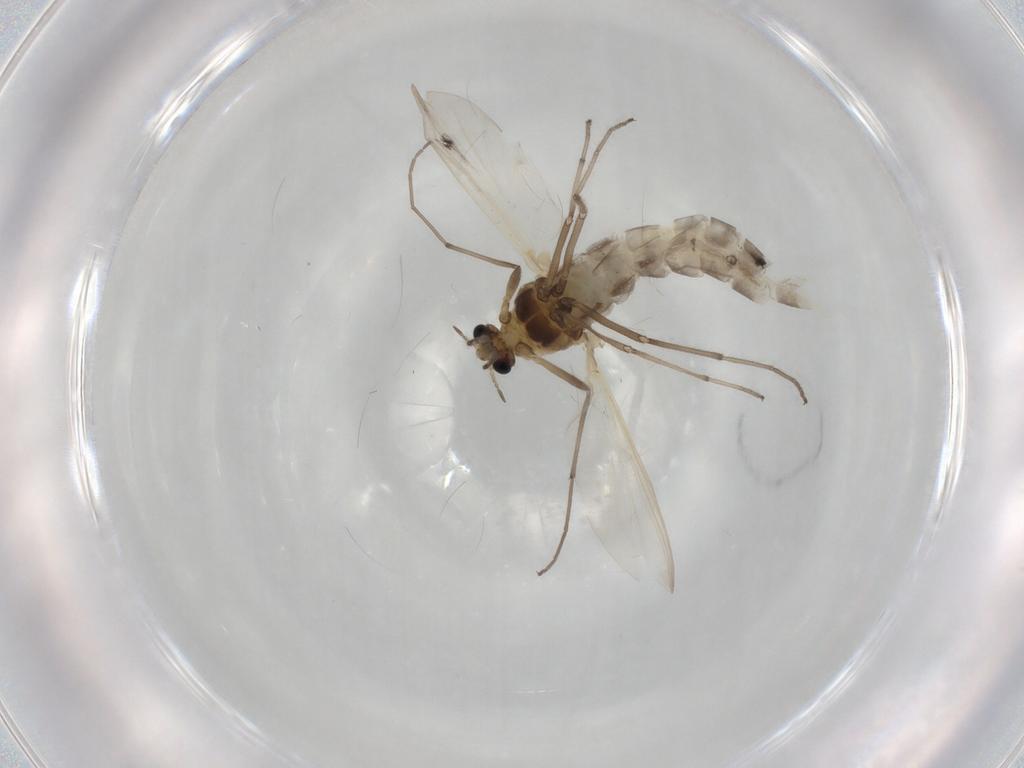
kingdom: Animalia
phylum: Arthropoda
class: Insecta
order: Diptera
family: Chironomidae
